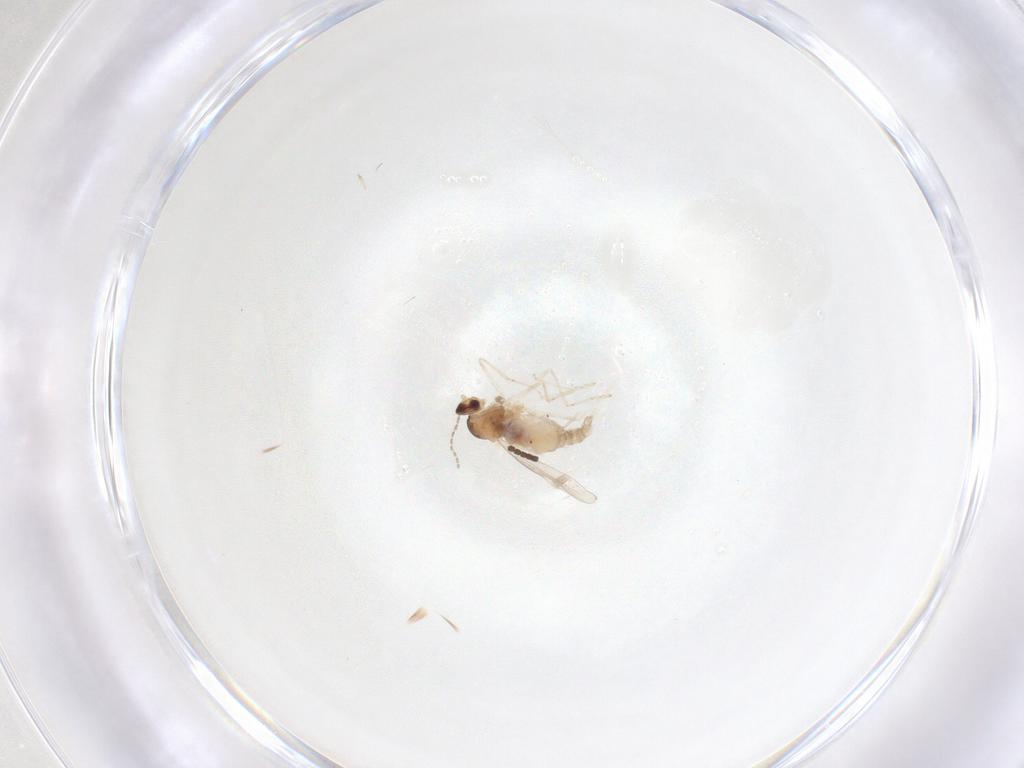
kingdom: Animalia
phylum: Arthropoda
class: Insecta
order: Diptera
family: Cecidomyiidae
